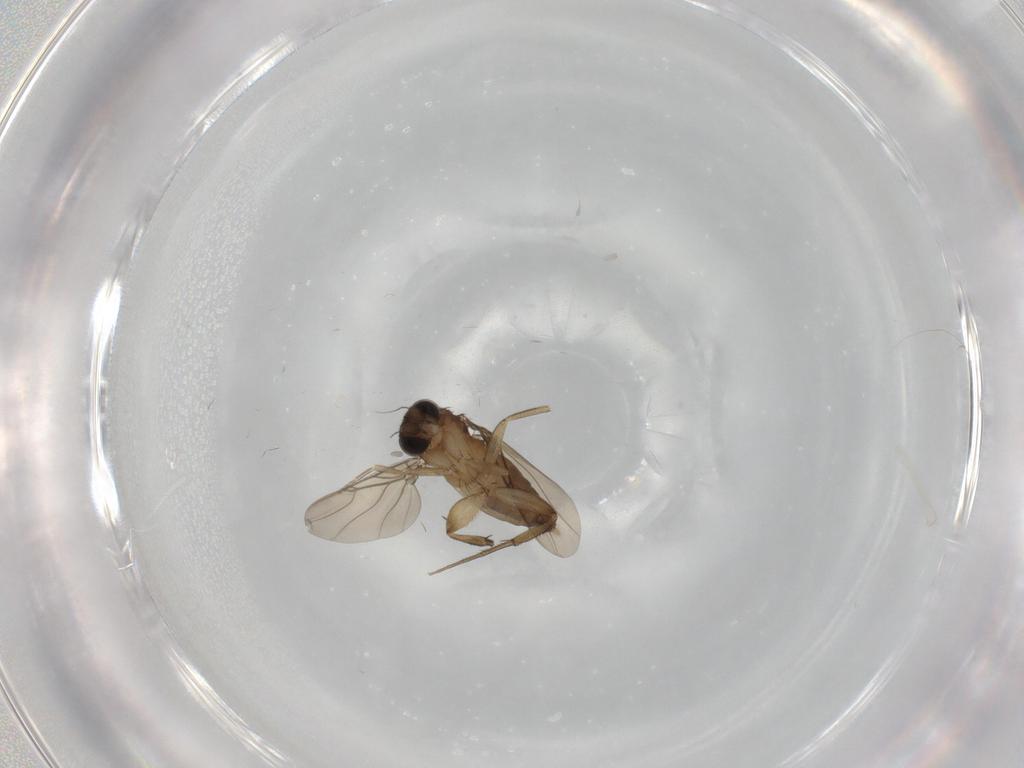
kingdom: Animalia
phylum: Arthropoda
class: Insecta
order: Diptera
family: Phoridae
